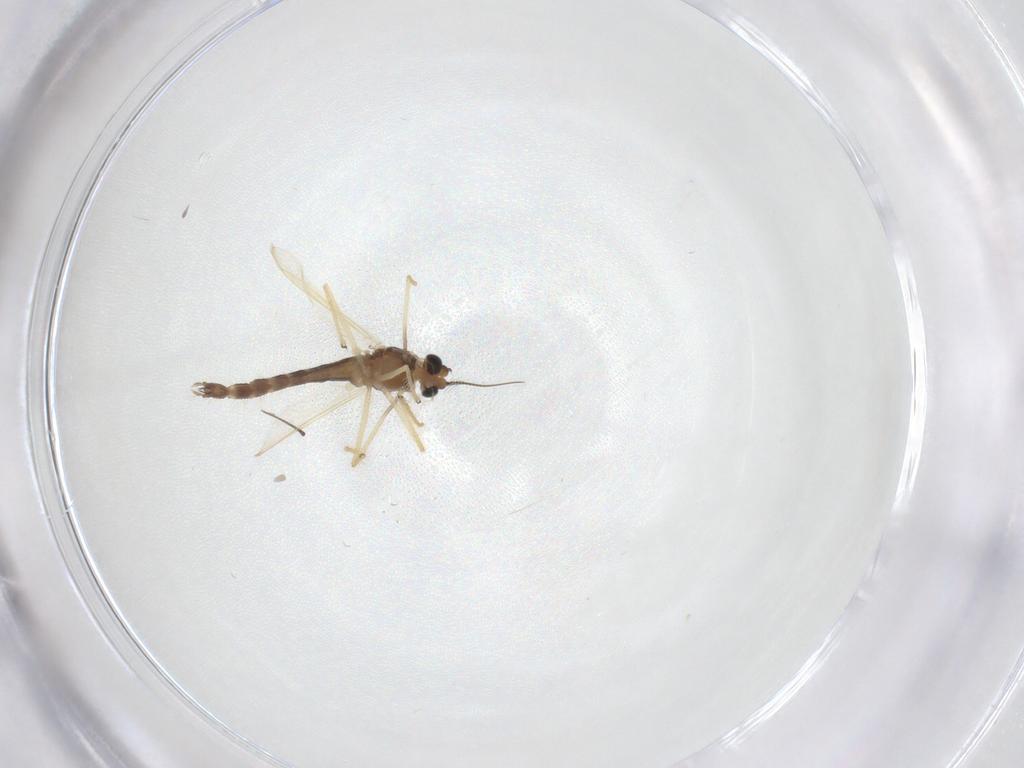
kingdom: Animalia
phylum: Arthropoda
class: Insecta
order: Diptera
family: Chironomidae
